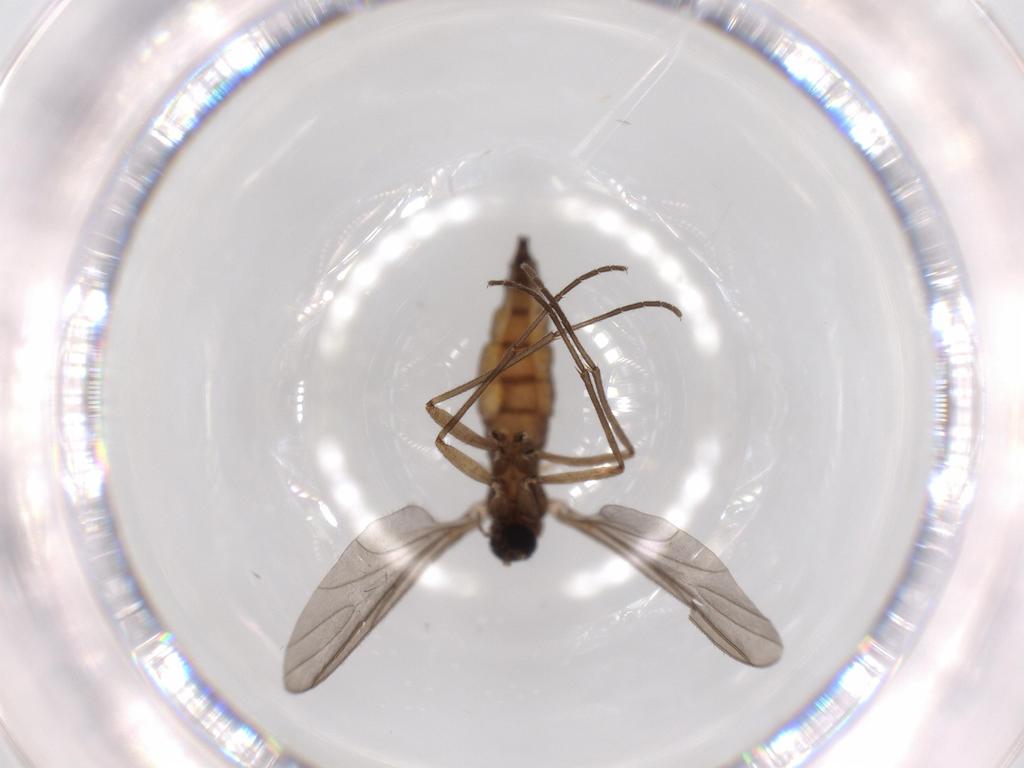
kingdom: Animalia
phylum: Arthropoda
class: Insecta
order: Diptera
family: Sciaridae
